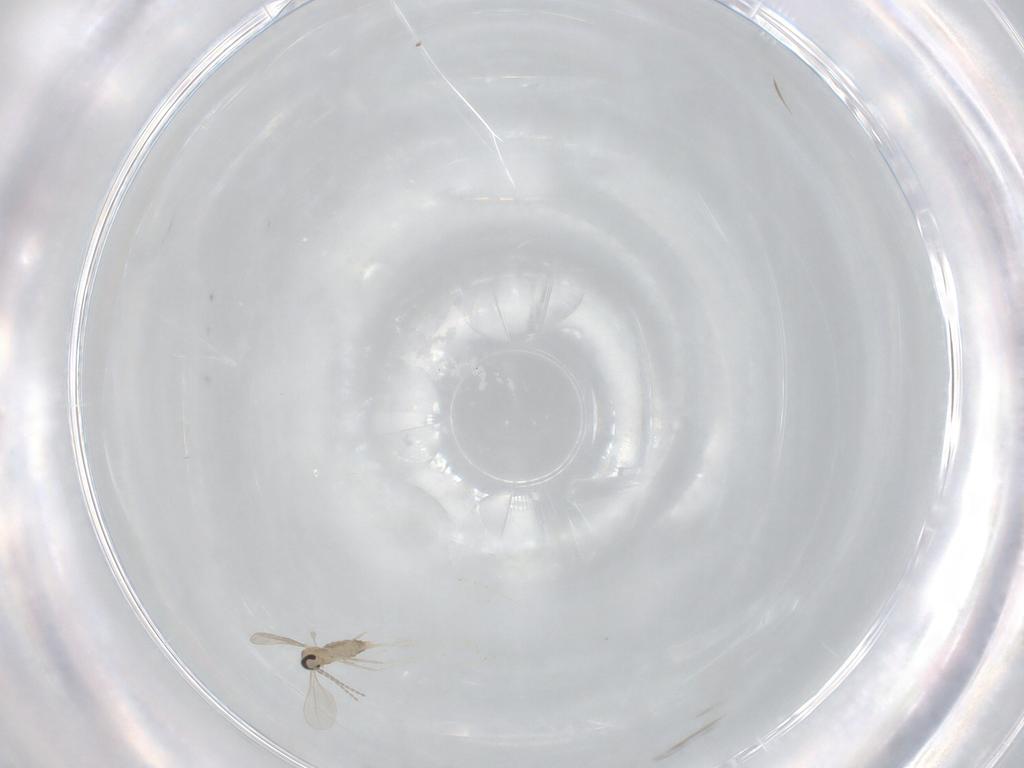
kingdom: Animalia
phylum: Arthropoda
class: Insecta
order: Diptera
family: Cecidomyiidae
